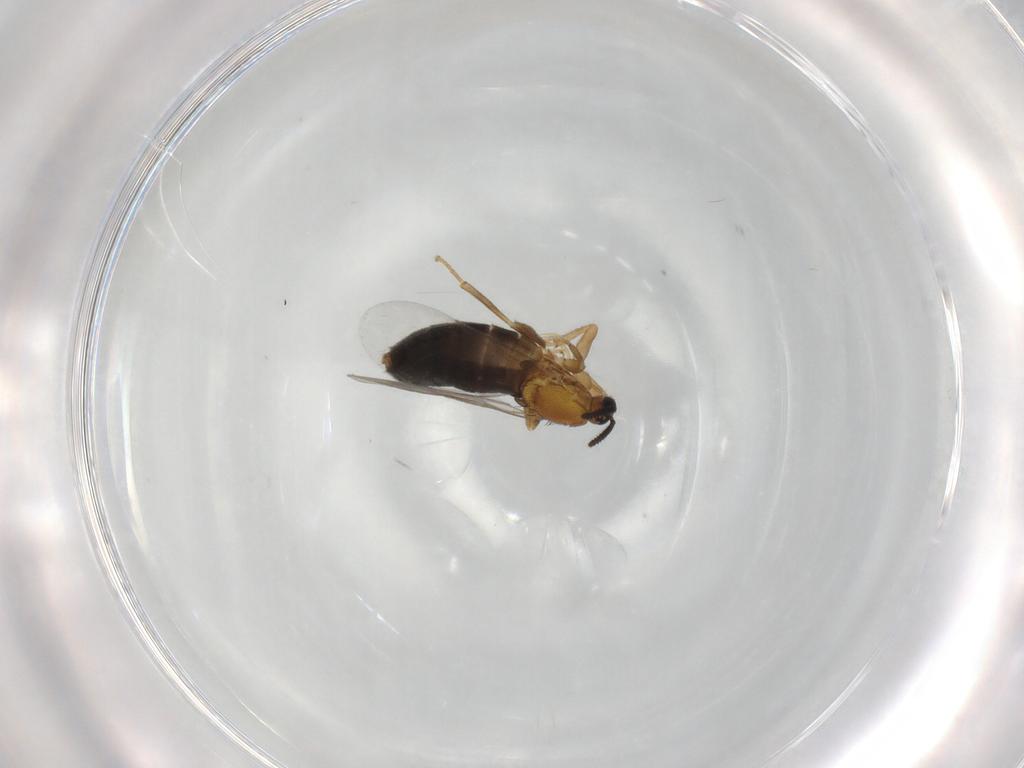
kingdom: Animalia
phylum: Arthropoda
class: Insecta
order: Diptera
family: Scatopsidae
